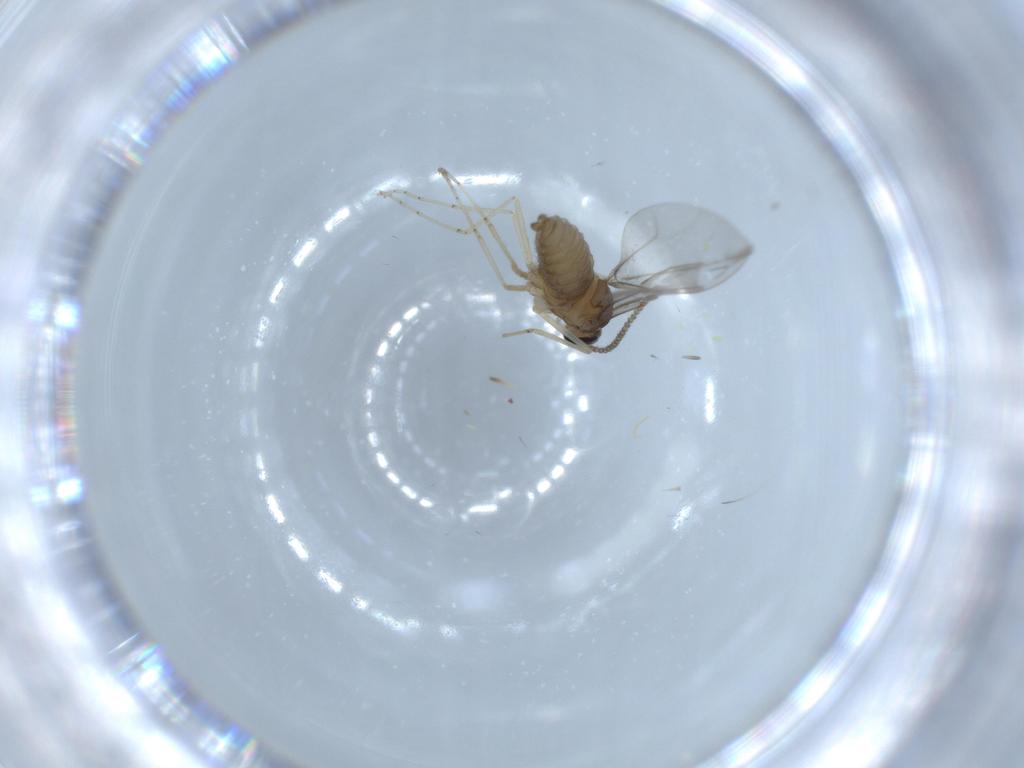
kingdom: Animalia
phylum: Arthropoda
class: Insecta
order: Diptera
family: Cecidomyiidae
